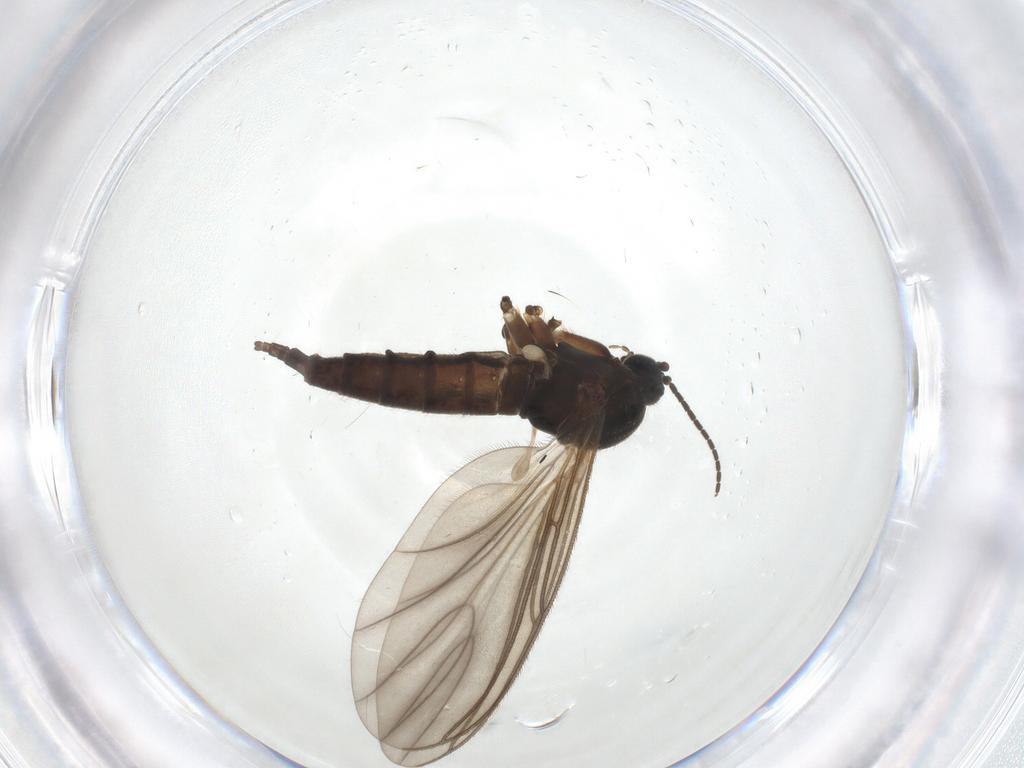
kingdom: Animalia
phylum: Arthropoda
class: Insecta
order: Diptera
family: Sciaridae
